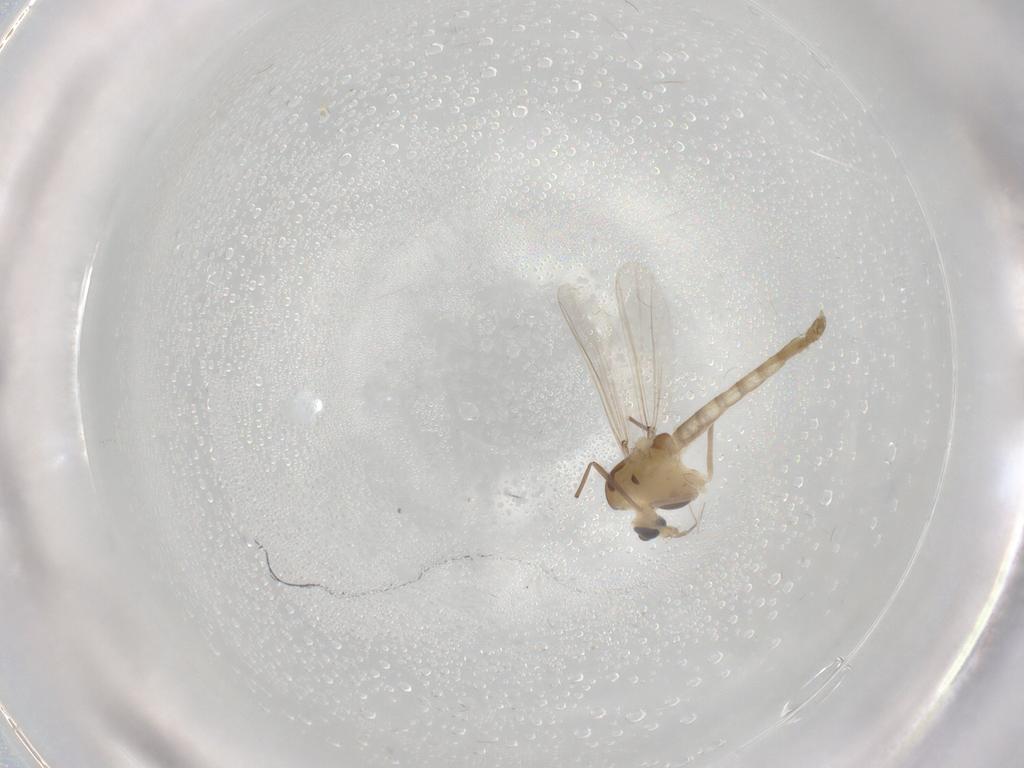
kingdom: Animalia
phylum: Arthropoda
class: Insecta
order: Diptera
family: Chironomidae
